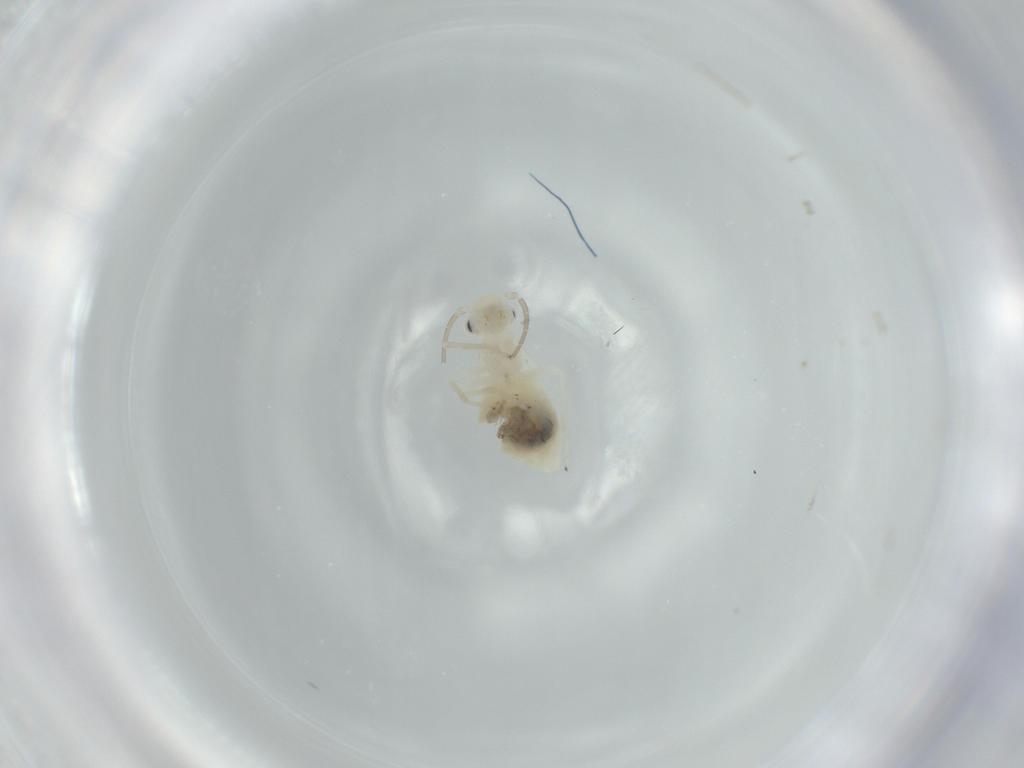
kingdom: Animalia
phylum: Arthropoda
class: Insecta
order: Psocodea
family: Caeciliusidae
